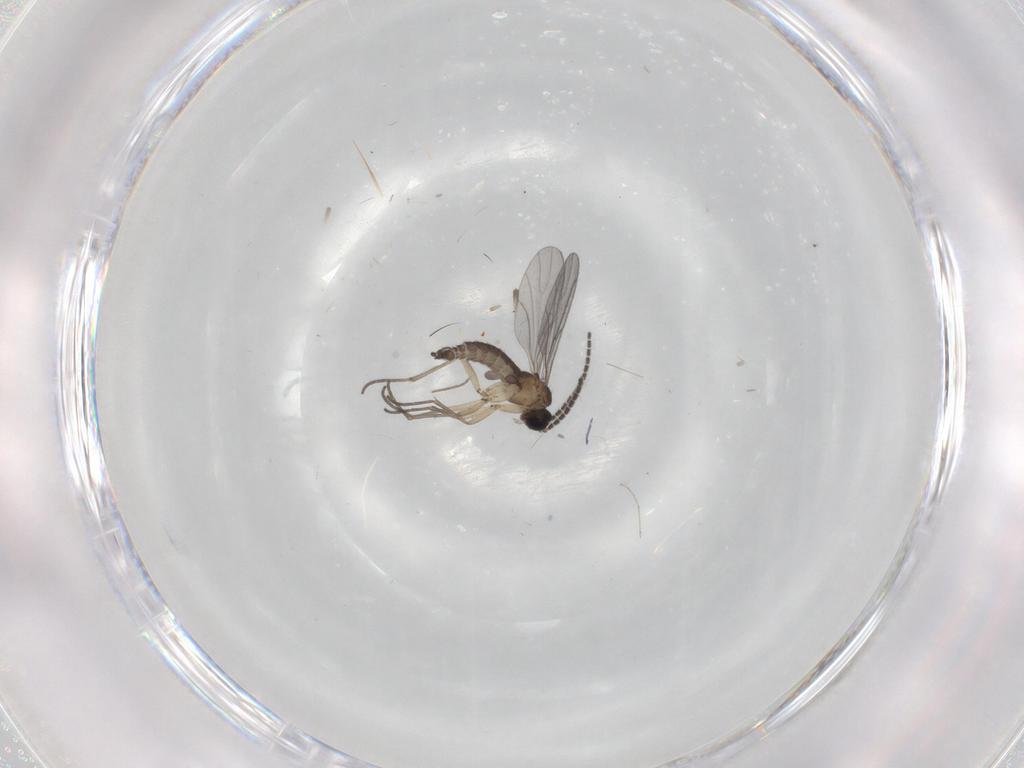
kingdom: Animalia
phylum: Arthropoda
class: Insecta
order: Diptera
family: Sciaridae
